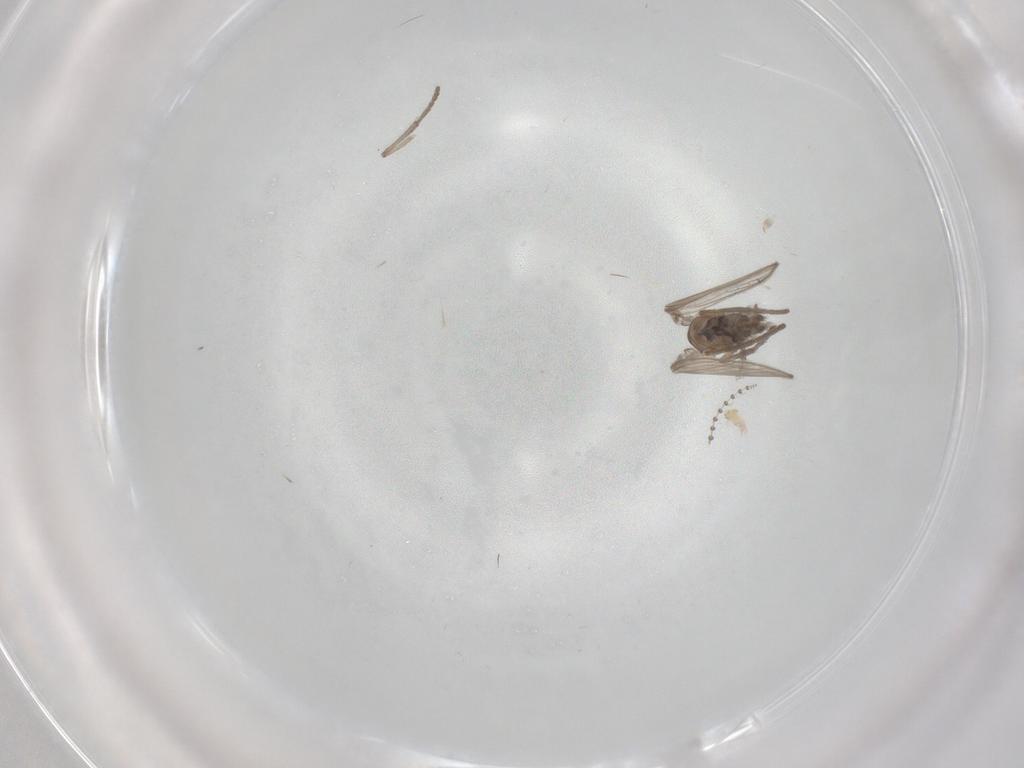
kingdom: Animalia
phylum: Arthropoda
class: Insecta
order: Diptera
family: Psychodidae
